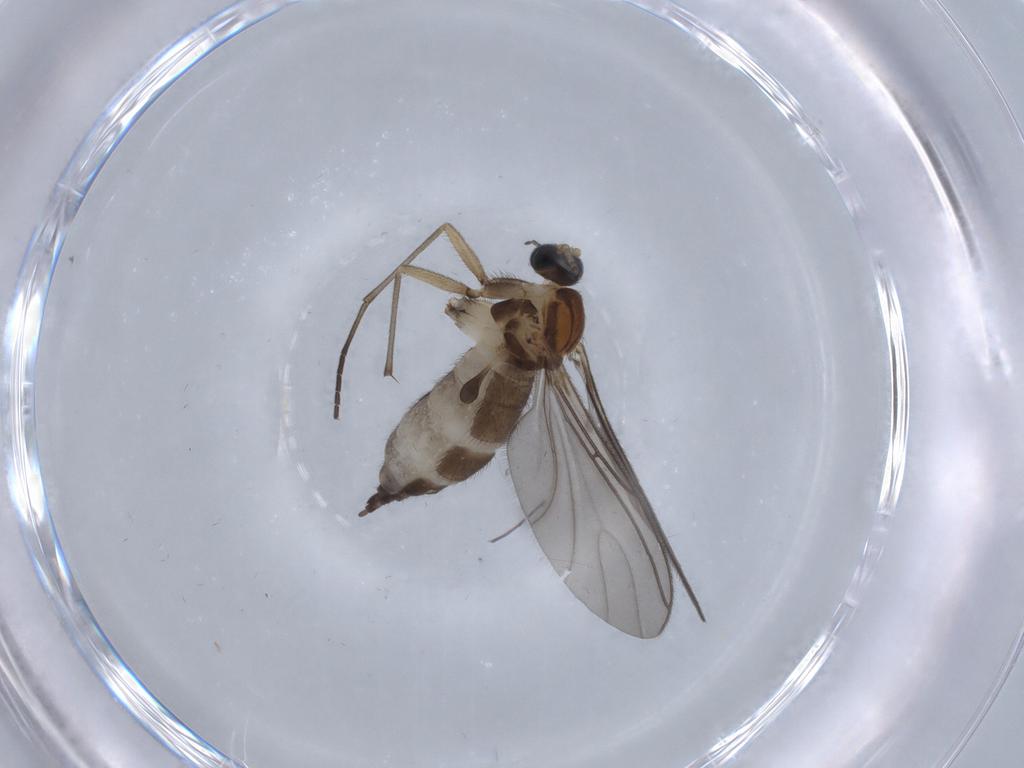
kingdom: Animalia
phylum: Arthropoda
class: Insecta
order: Diptera
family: Sciaridae
